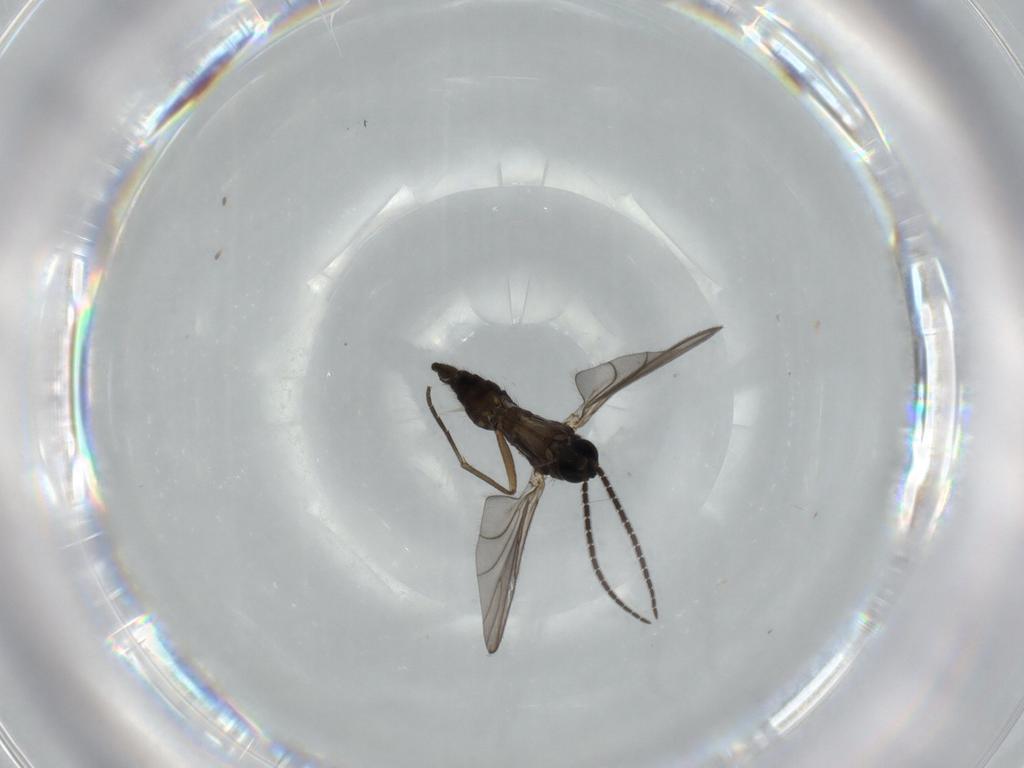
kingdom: Animalia
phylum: Arthropoda
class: Insecta
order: Diptera
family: Sciaridae
